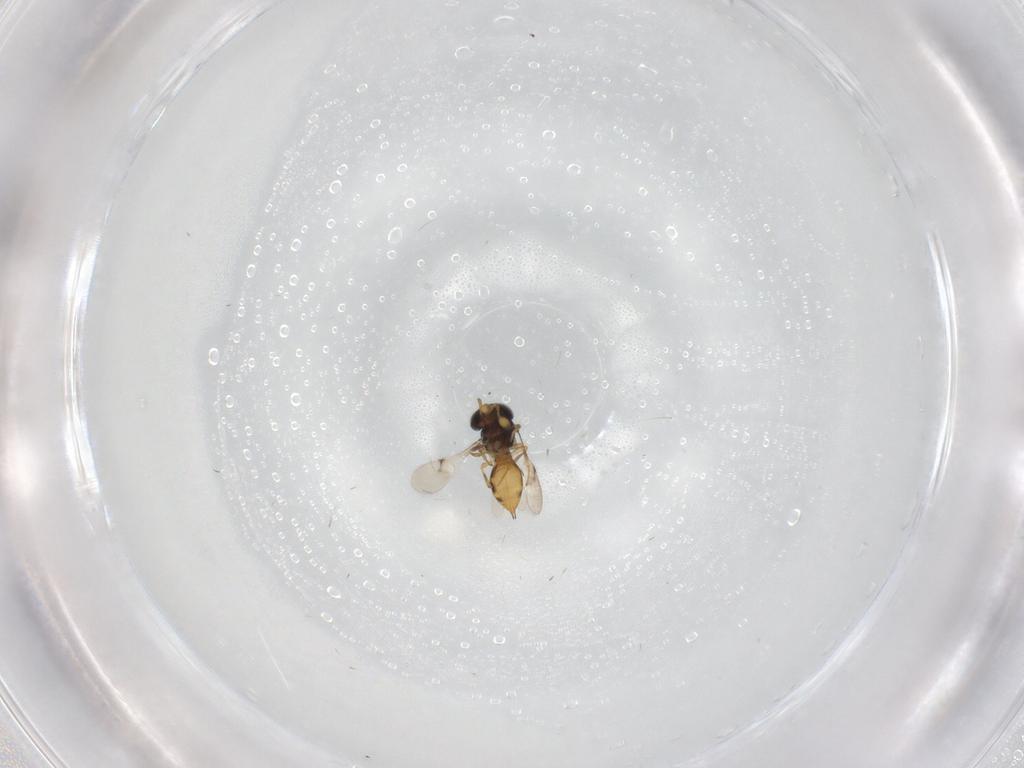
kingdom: Animalia
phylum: Arthropoda
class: Insecta
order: Hymenoptera
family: Scelionidae
